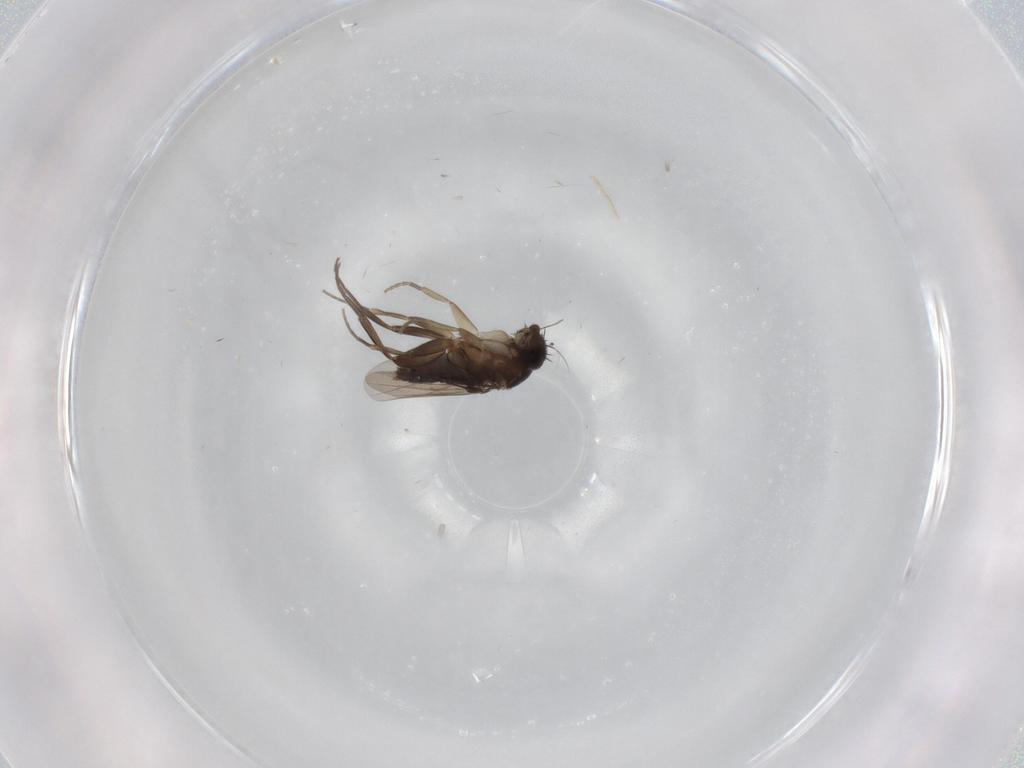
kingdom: Animalia
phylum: Arthropoda
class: Insecta
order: Diptera
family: Phoridae
